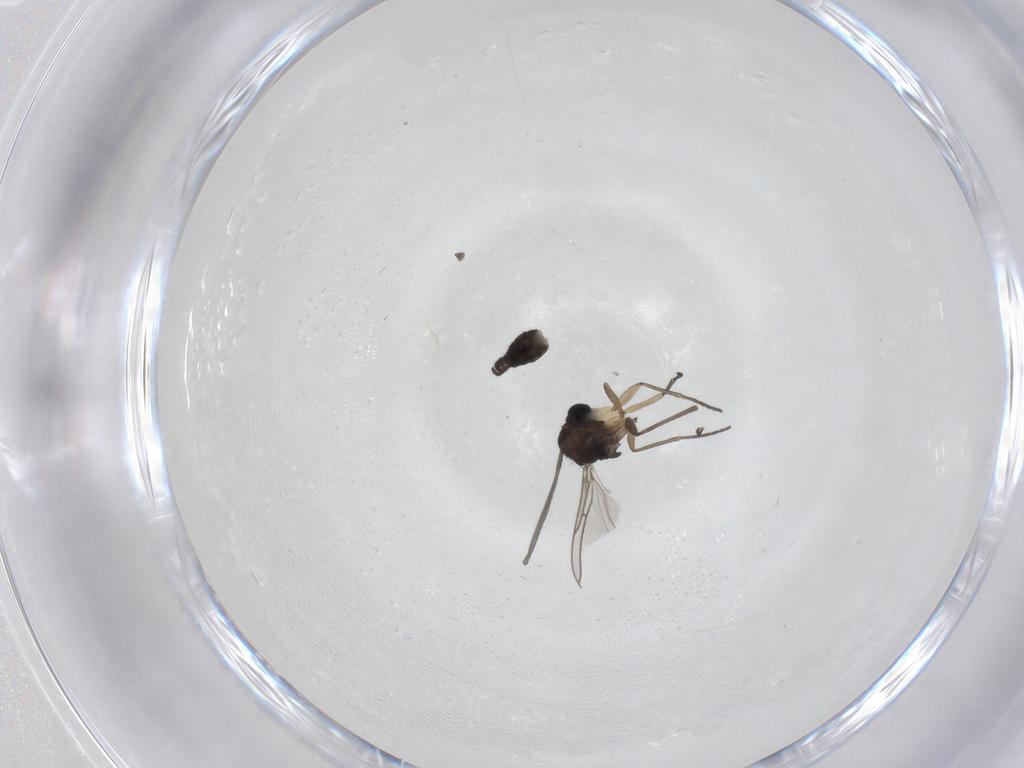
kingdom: Animalia
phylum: Arthropoda
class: Insecta
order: Diptera
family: Sciaridae
